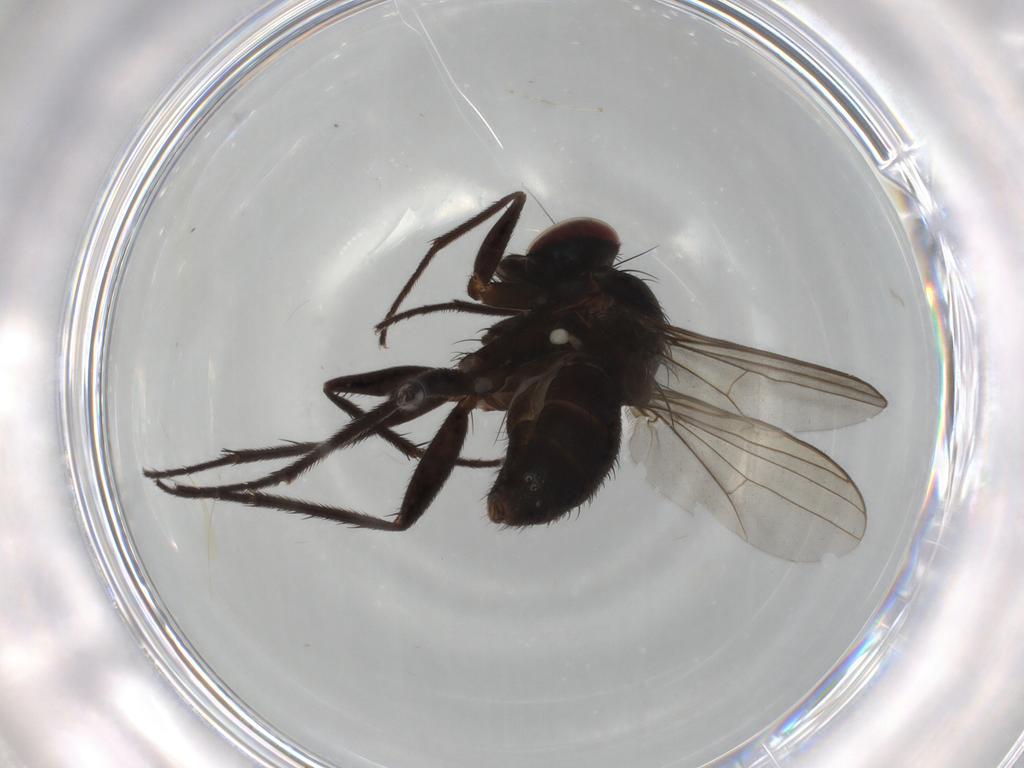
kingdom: Animalia
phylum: Arthropoda
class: Insecta
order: Diptera
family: Dolichopodidae
